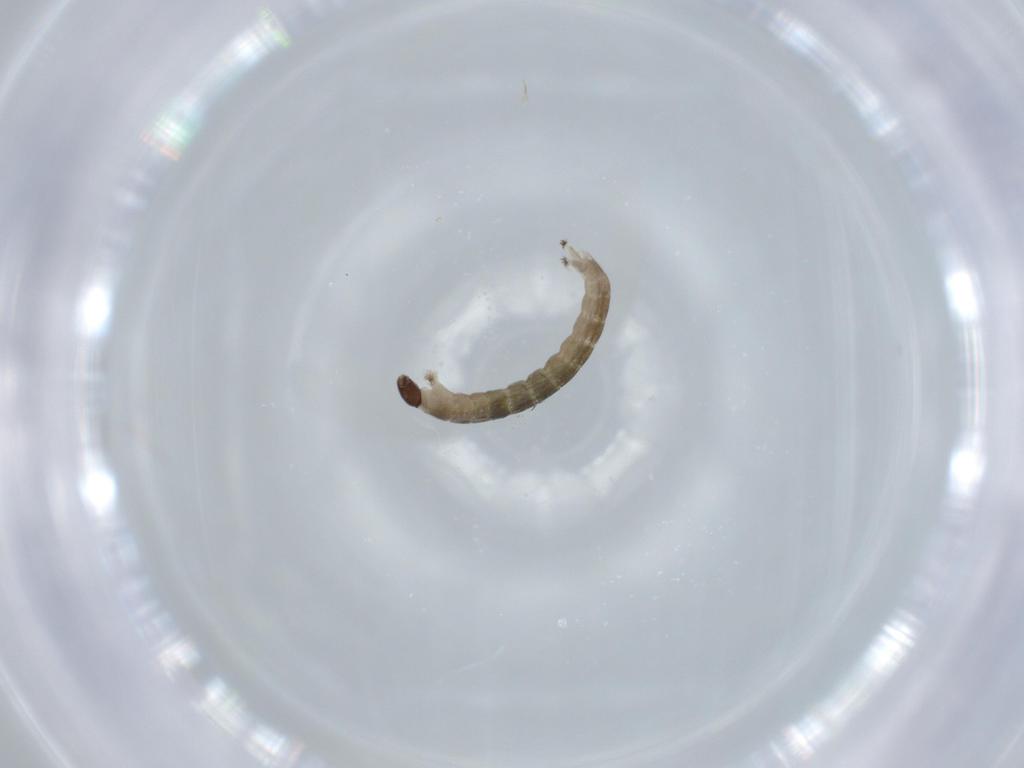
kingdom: Animalia
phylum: Arthropoda
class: Insecta
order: Diptera
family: Chironomidae
